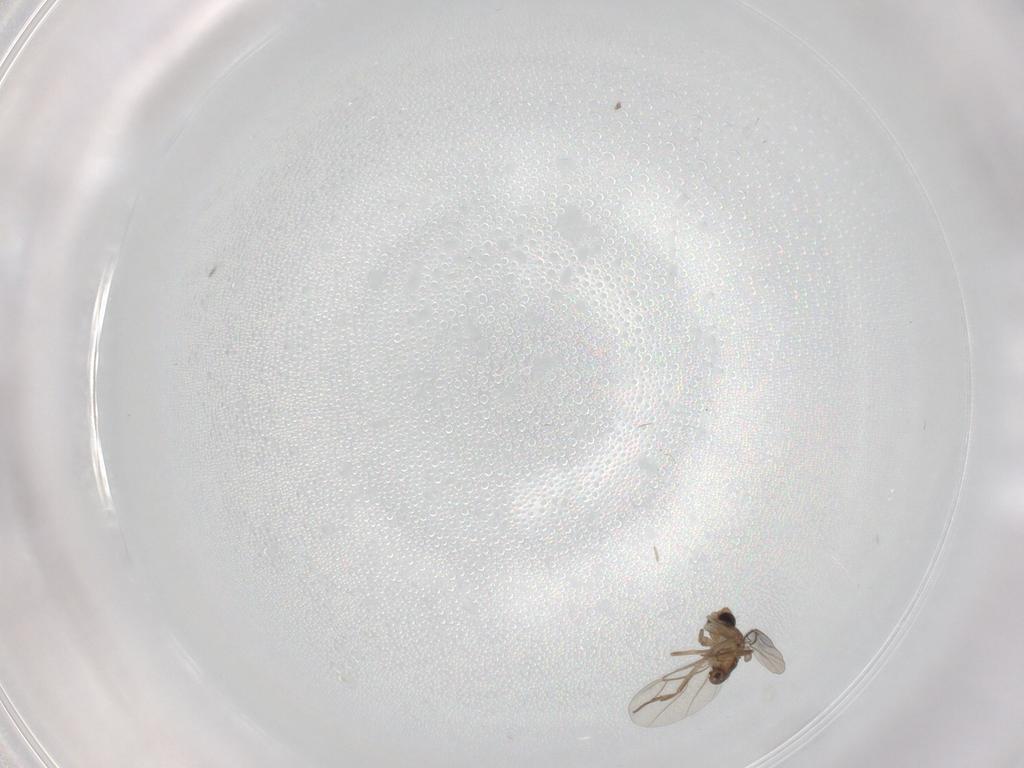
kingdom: Animalia
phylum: Arthropoda
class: Insecta
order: Diptera
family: Phoridae
